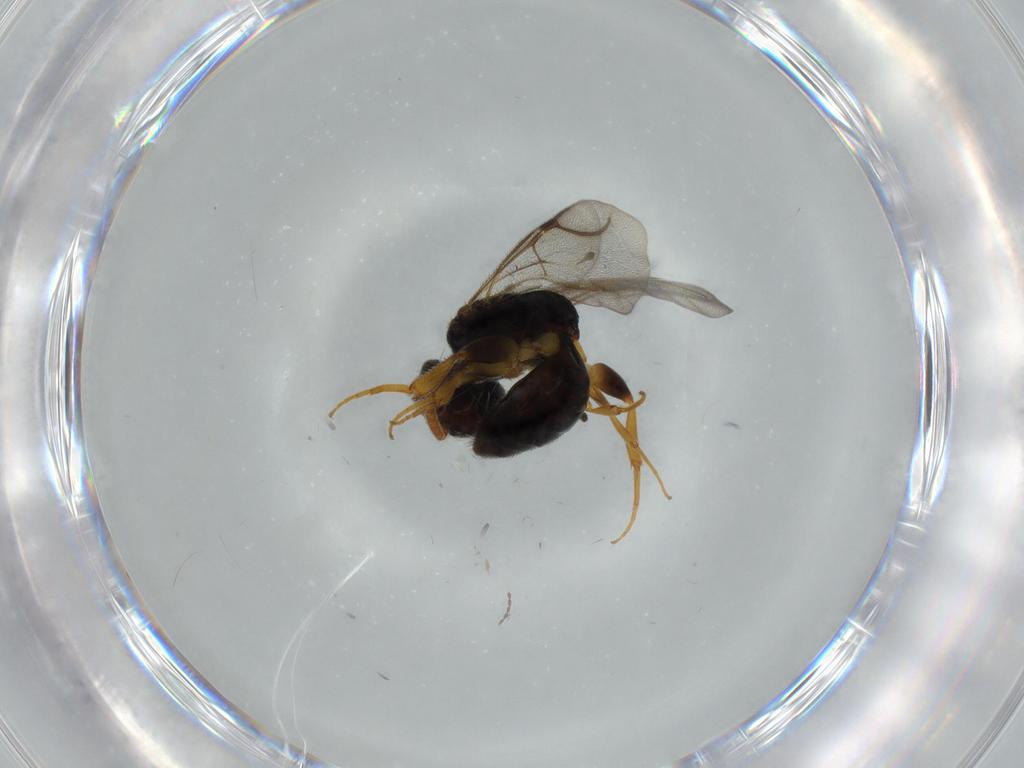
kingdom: Animalia
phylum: Arthropoda
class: Insecta
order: Hymenoptera
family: Bethylidae
